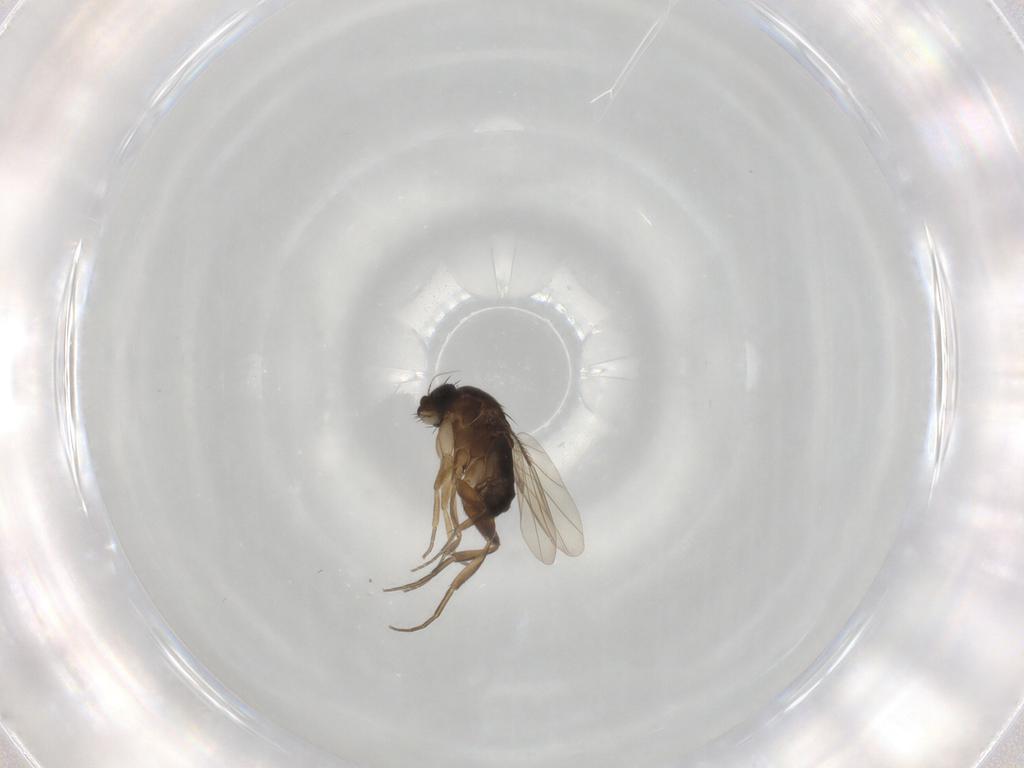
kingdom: Animalia
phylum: Arthropoda
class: Insecta
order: Diptera
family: Phoridae
